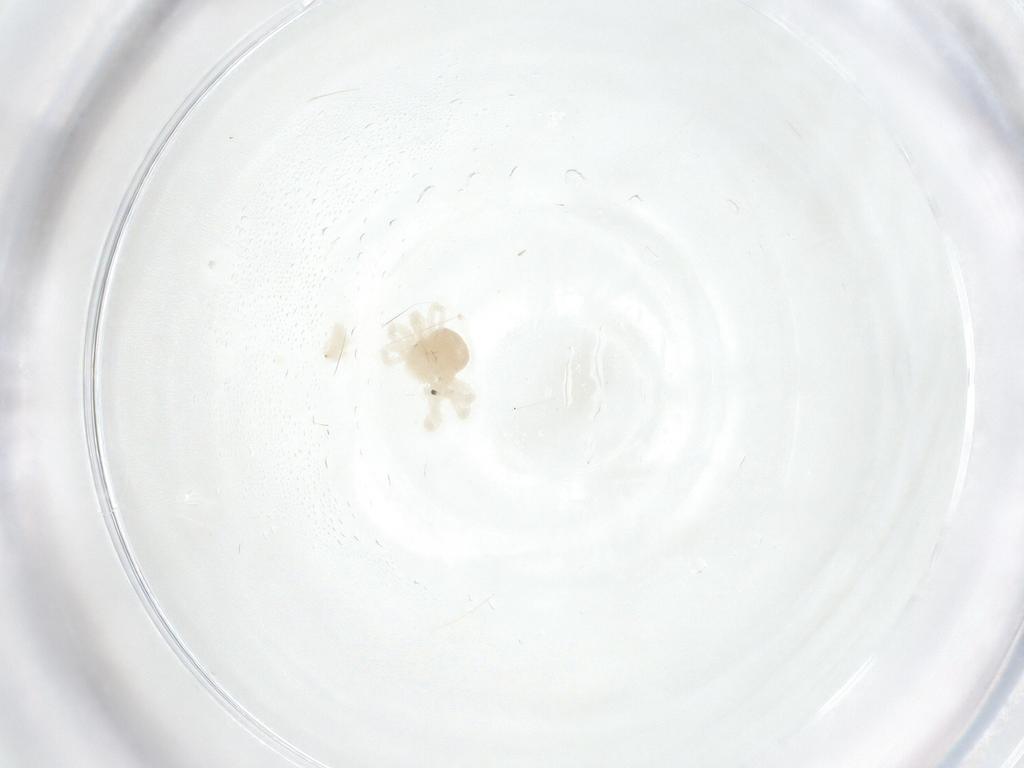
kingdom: Animalia
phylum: Arthropoda
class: Arachnida
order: Trombidiformes
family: Anystidae
